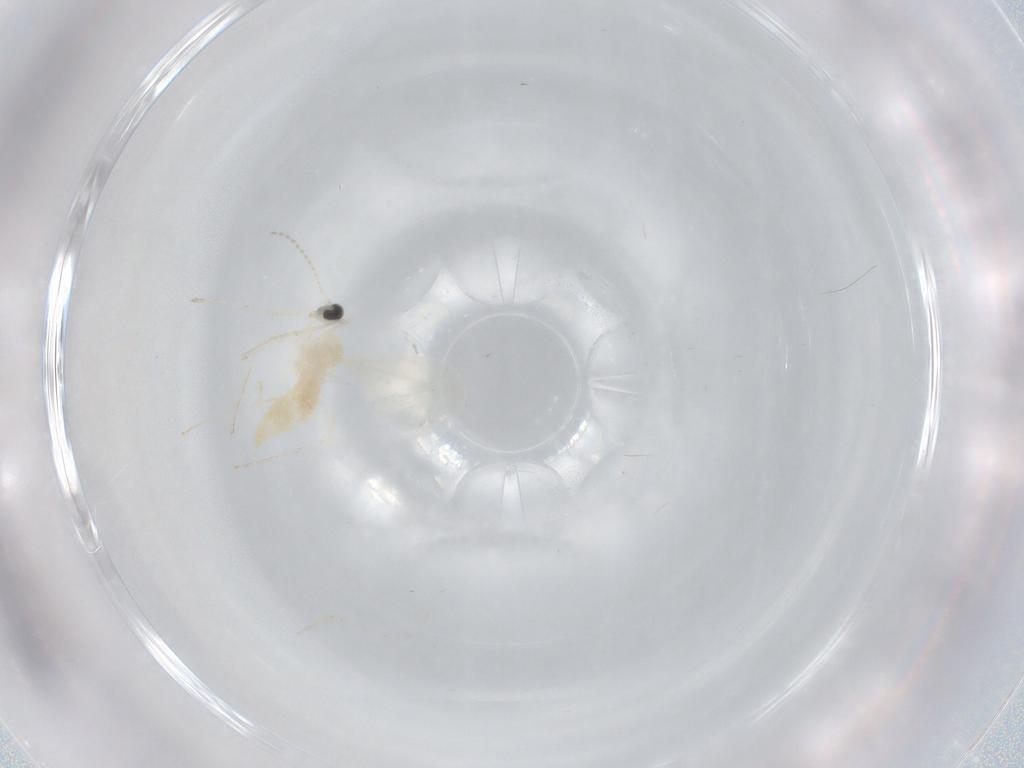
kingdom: Animalia
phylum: Arthropoda
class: Insecta
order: Diptera
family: Cecidomyiidae
